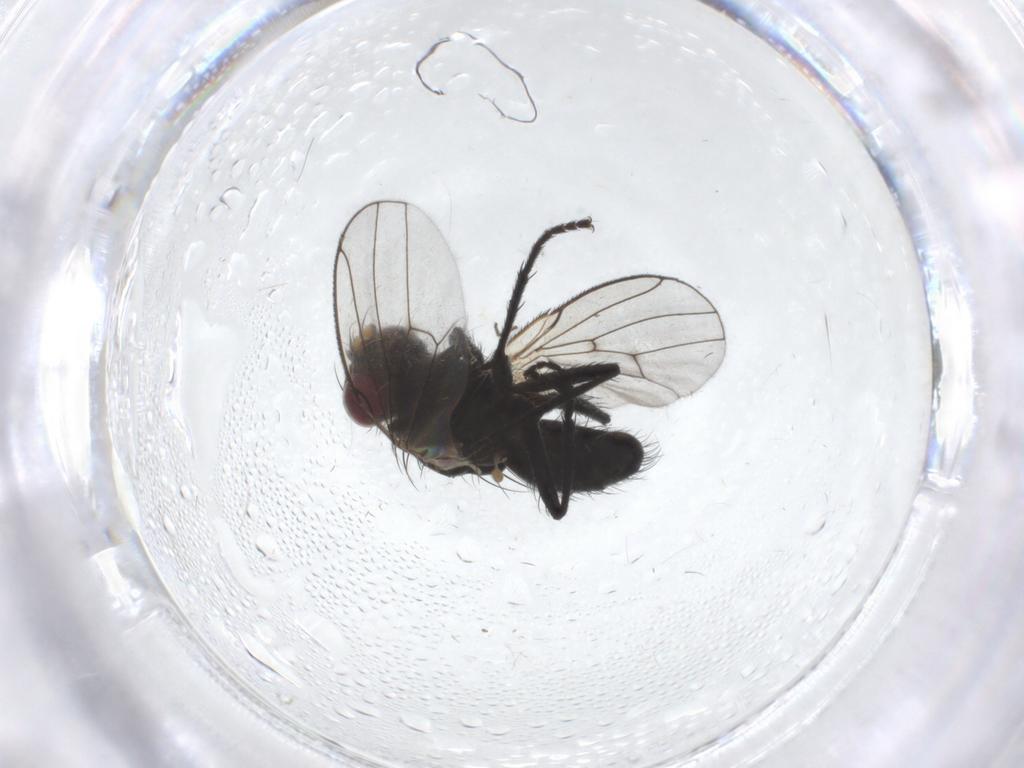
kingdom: Animalia
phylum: Arthropoda
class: Insecta
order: Diptera
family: Muscidae
